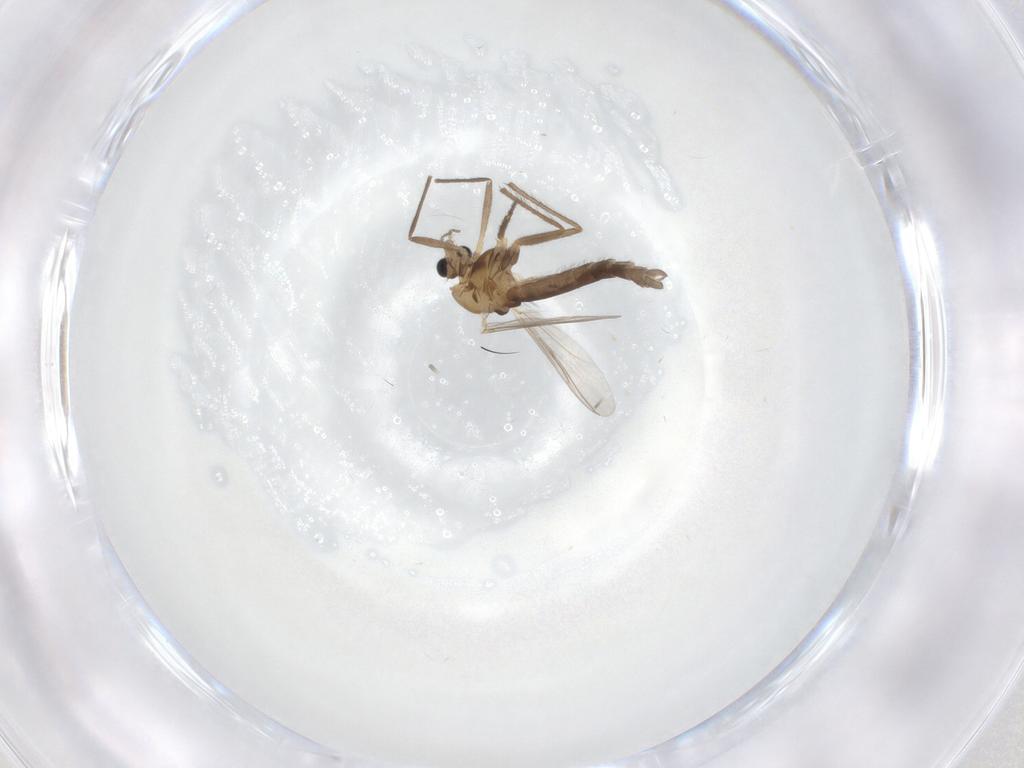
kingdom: Animalia
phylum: Arthropoda
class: Insecta
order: Diptera
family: Chironomidae
